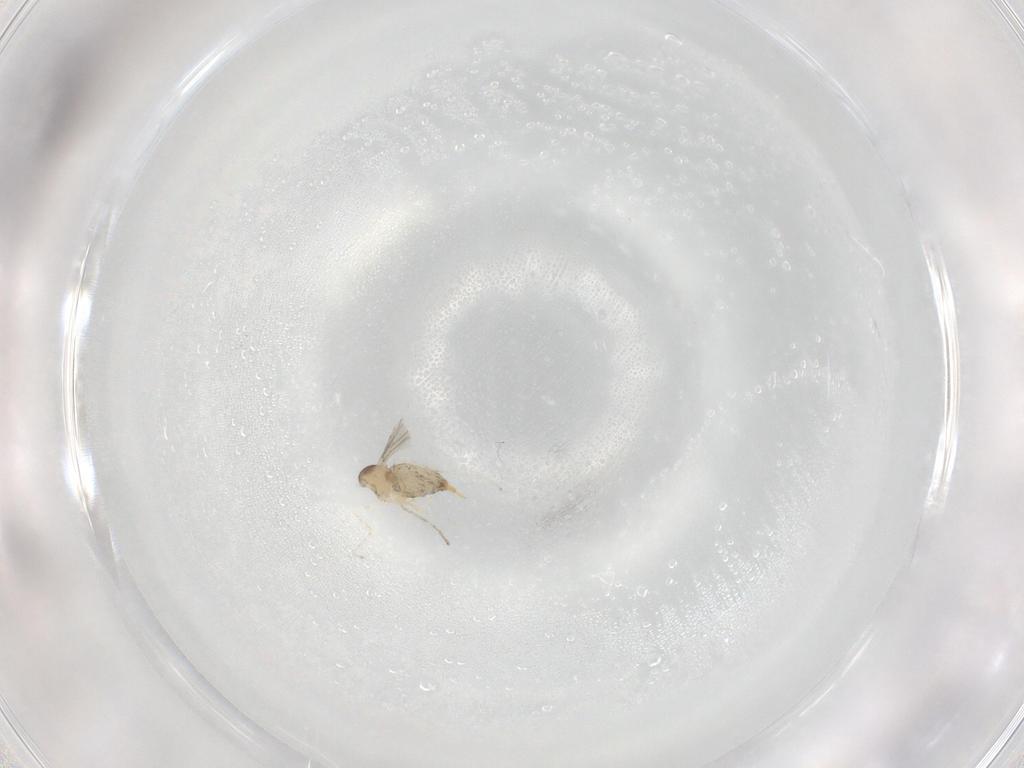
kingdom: Animalia
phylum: Arthropoda
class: Insecta
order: Diptera
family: Cecidomyiidae
